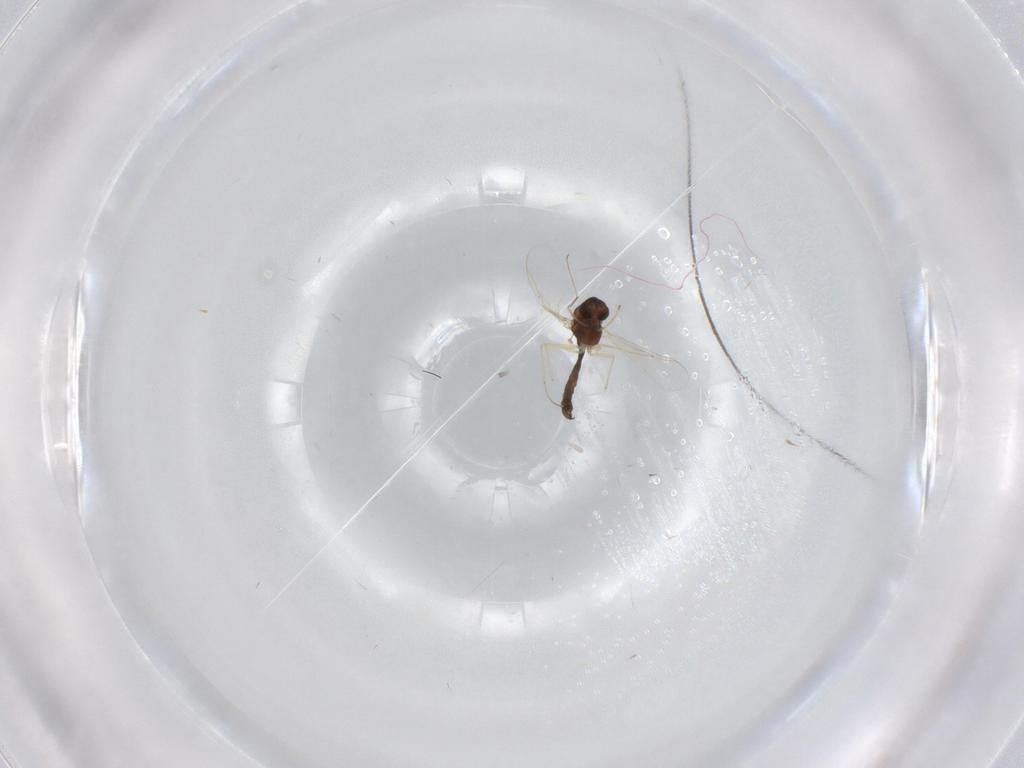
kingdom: Animalia
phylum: Arthropoda
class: Insecta
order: Diptera
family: Chironomidae
